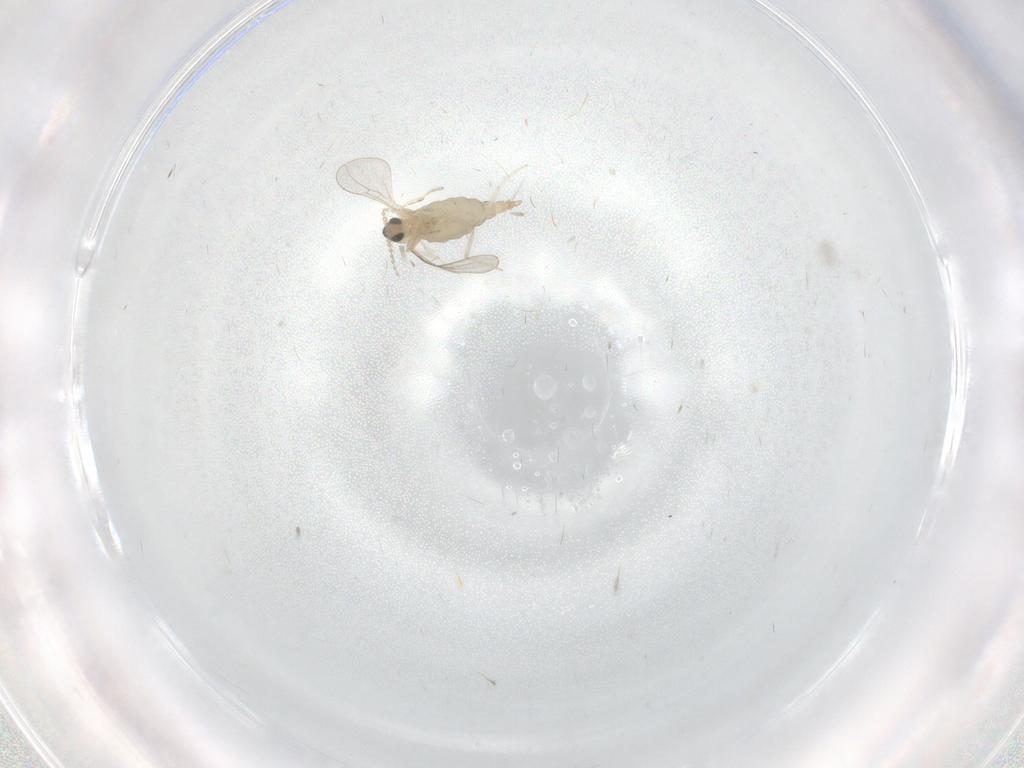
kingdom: Animalia
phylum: Arthropoda
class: Insecta
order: Diptera
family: Cecidomyiidae
